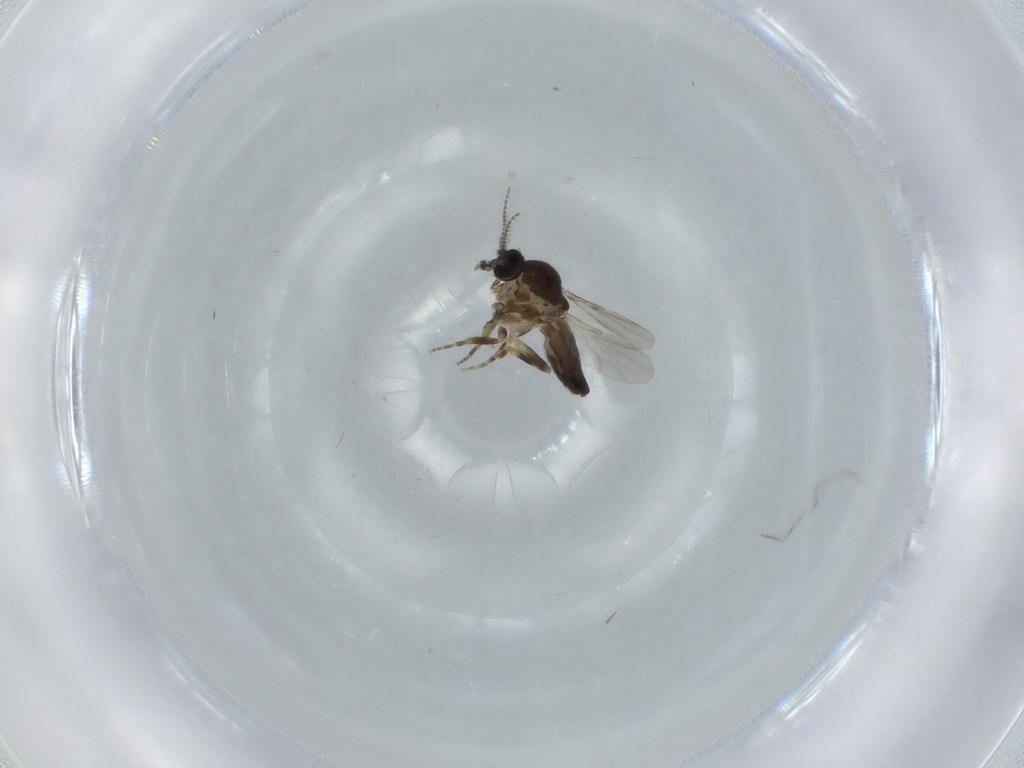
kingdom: Animalia
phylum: Arthropoda
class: Insecta
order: Diptera
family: Ceratopogonidae
